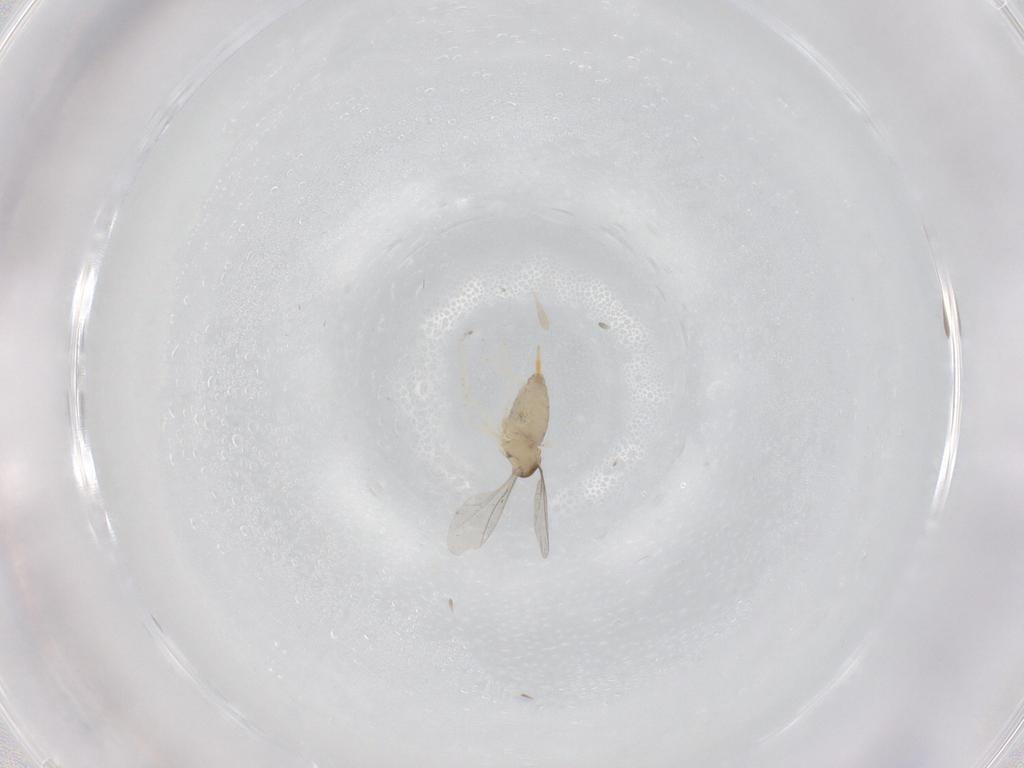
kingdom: Animalia
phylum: Arthropoda
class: Insecta
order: Diptera
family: Cecidomyiidae
